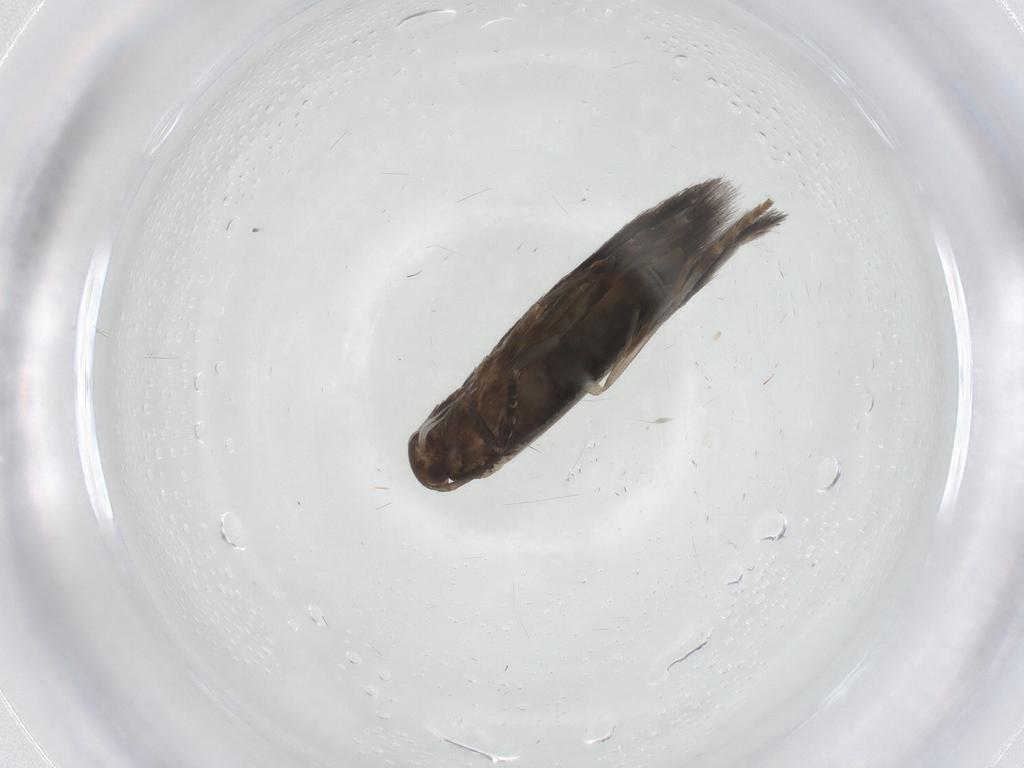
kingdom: Animalia
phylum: Arthropoda
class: Insecta
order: Lepidoptera
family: Elachistidae
